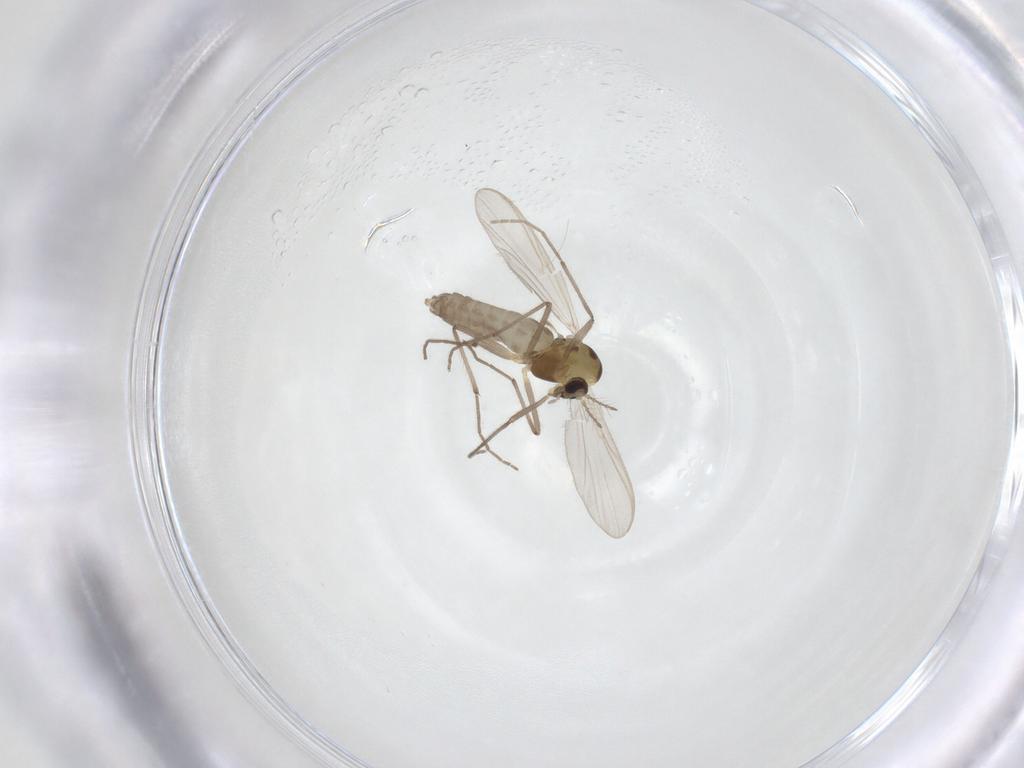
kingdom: Animalia
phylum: Arthropoda
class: Insecta
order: Diptera
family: Chironomidae
